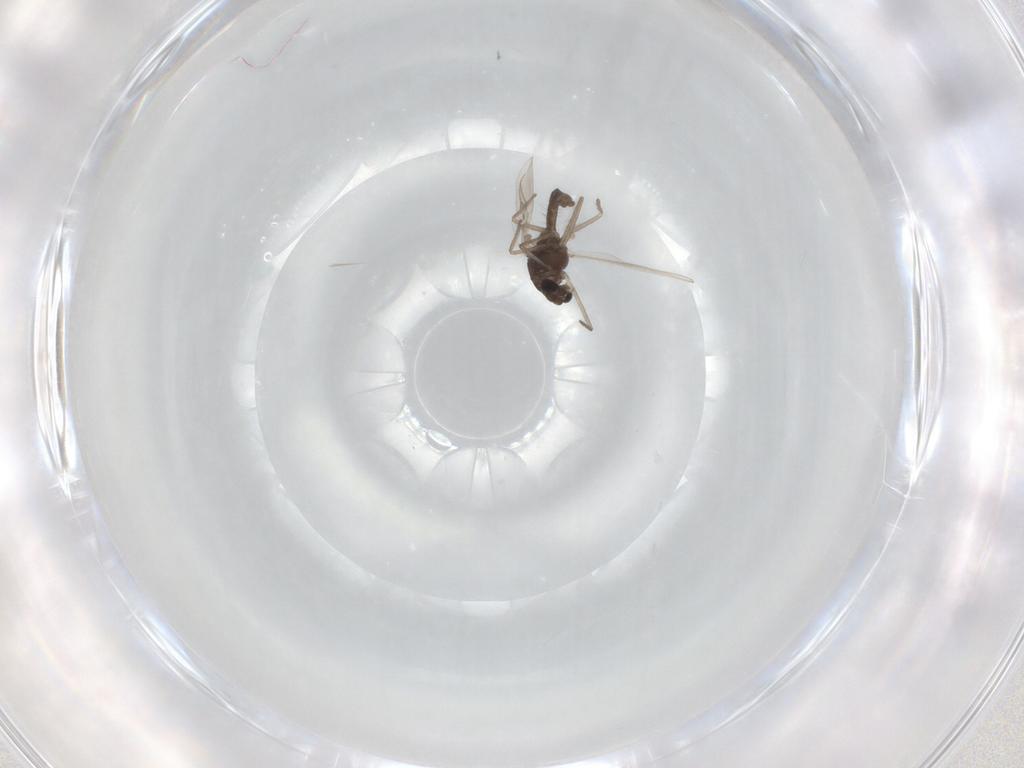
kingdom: Animalia
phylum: Arthropoda
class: Insecta
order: Diptera
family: Chironomidae
